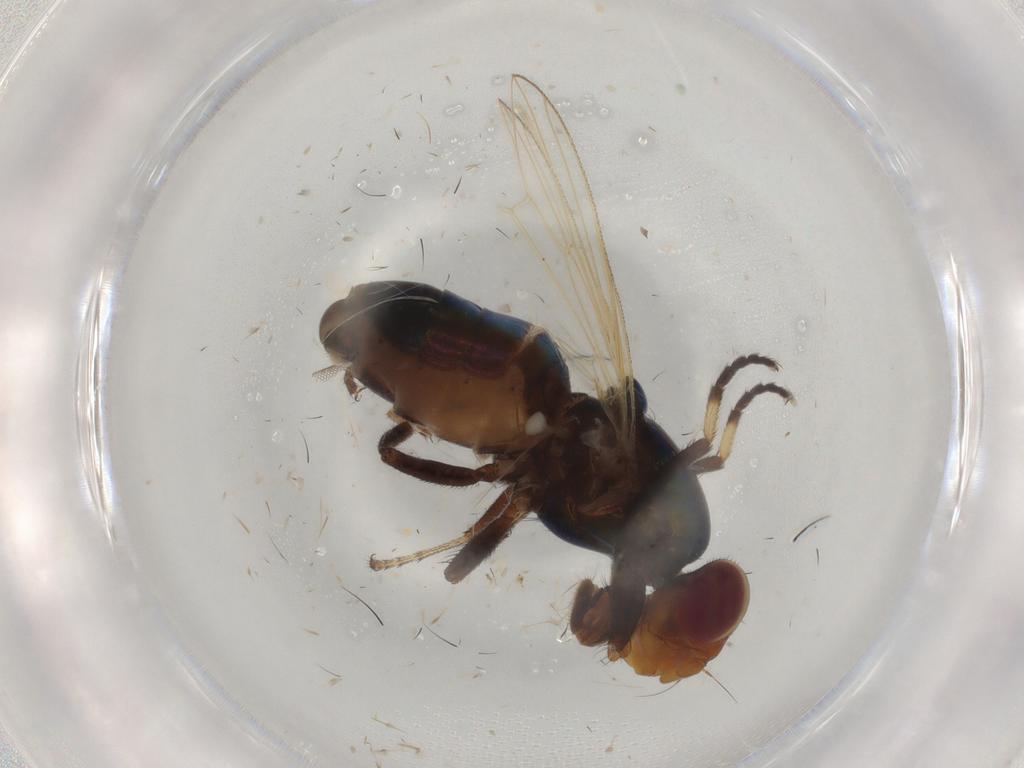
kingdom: Animalia
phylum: Arthropoda
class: Insecta
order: Diptera
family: Ulidiidae
